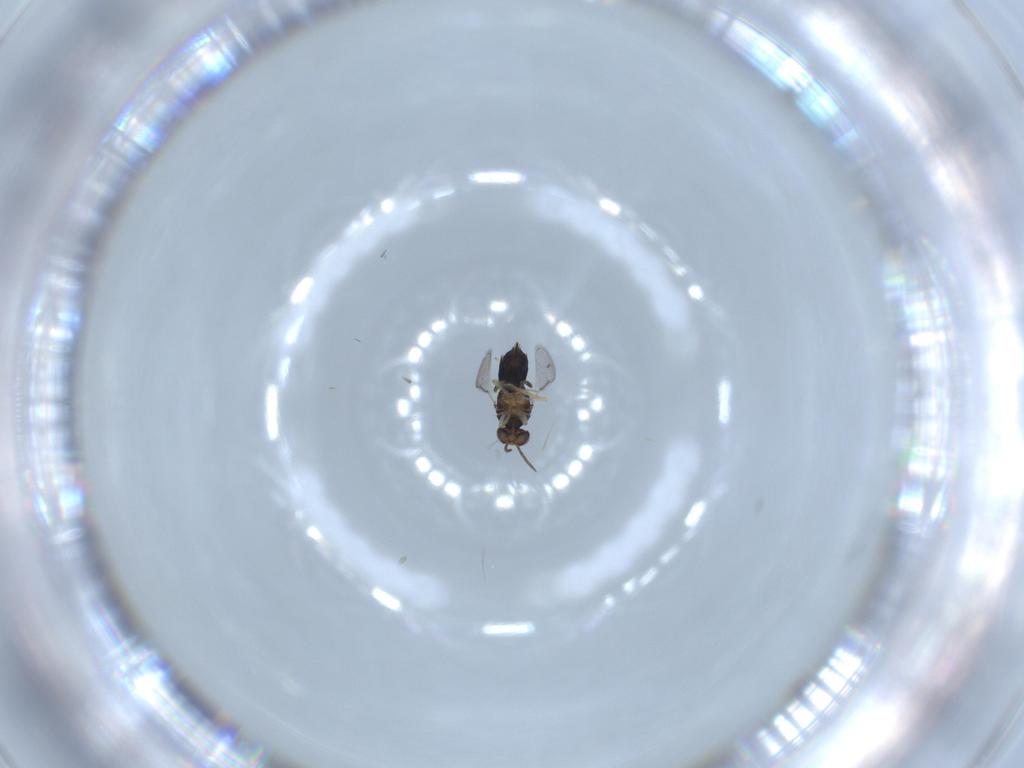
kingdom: Animalia
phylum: Arthropoda
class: Insecta
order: Hymenoptera
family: Aphelinidae
